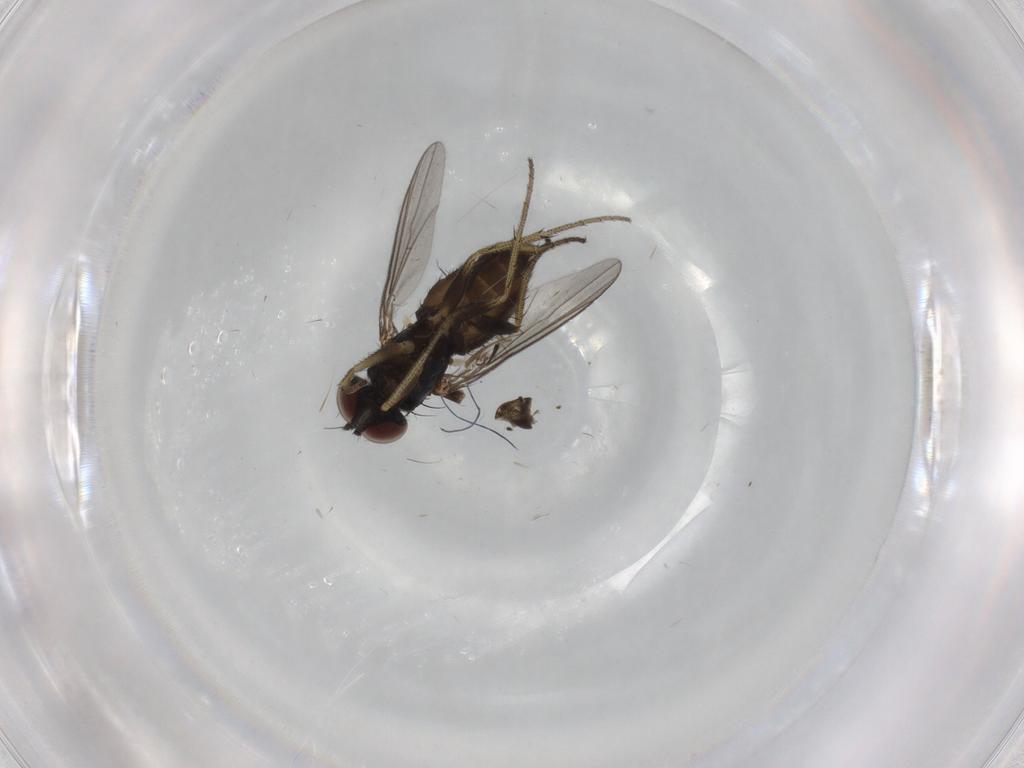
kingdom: Animalia
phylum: Arthropoda
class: Insecta
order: Diptera
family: Dolichopodidae
